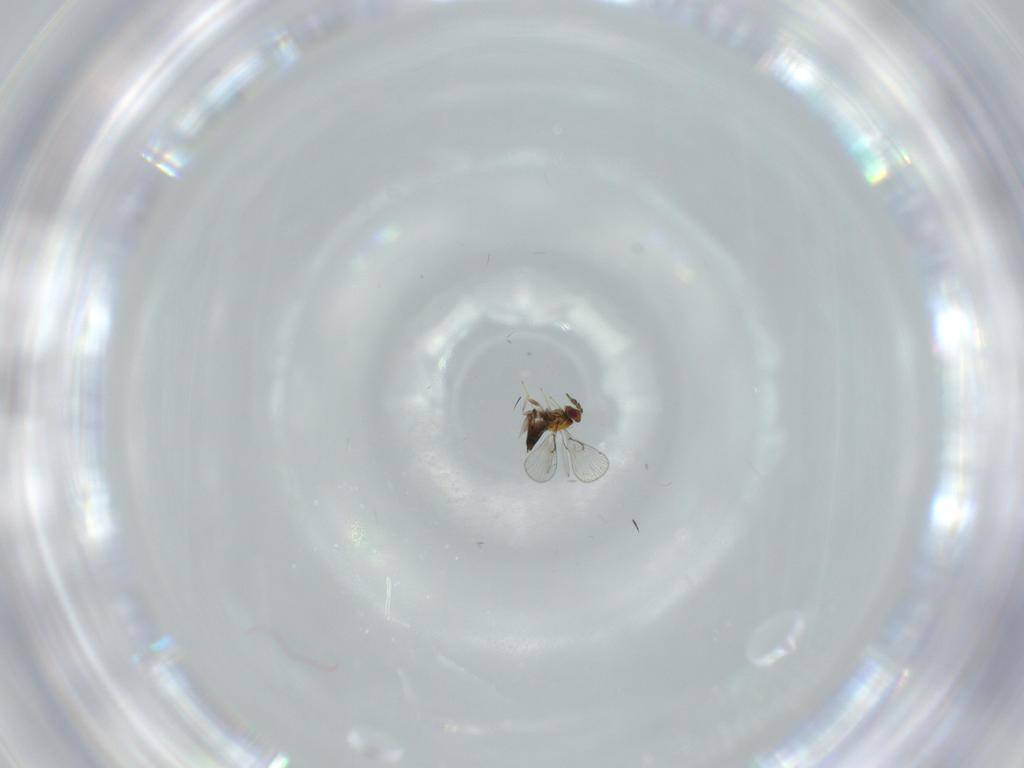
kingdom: Animalia
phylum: Arthropoda
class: Insecta
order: Hymenoptera
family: Trichogrammatidae
